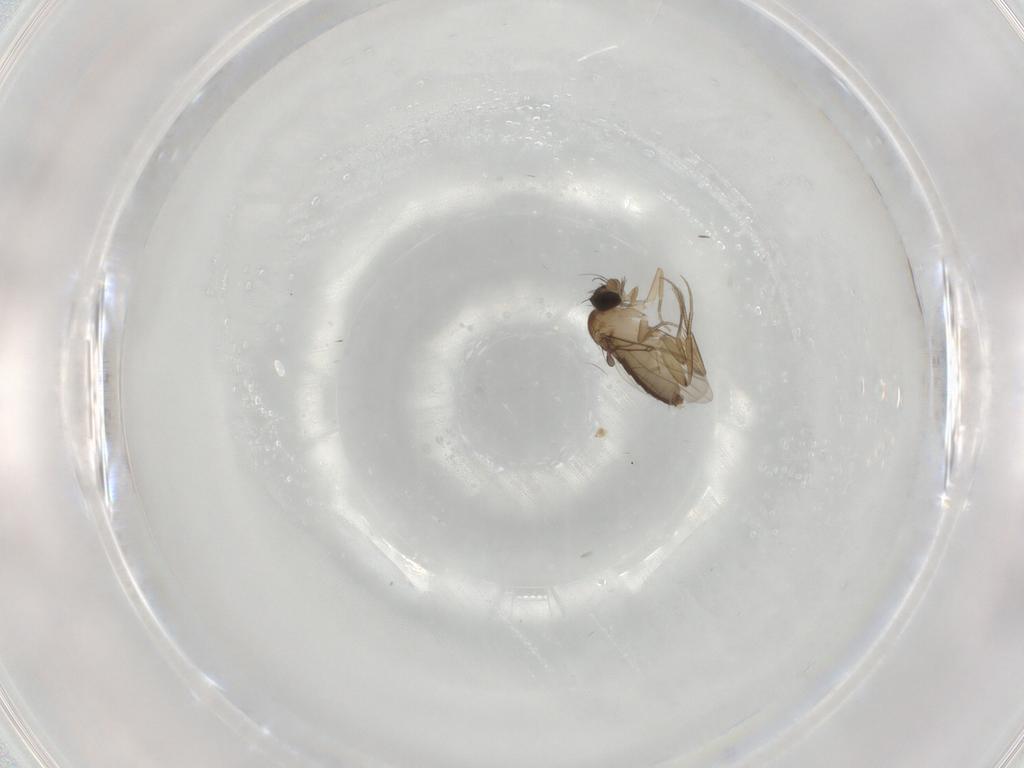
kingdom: Animalia
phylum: Arthropoda
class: Insecta
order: Diptera
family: Phoridae
